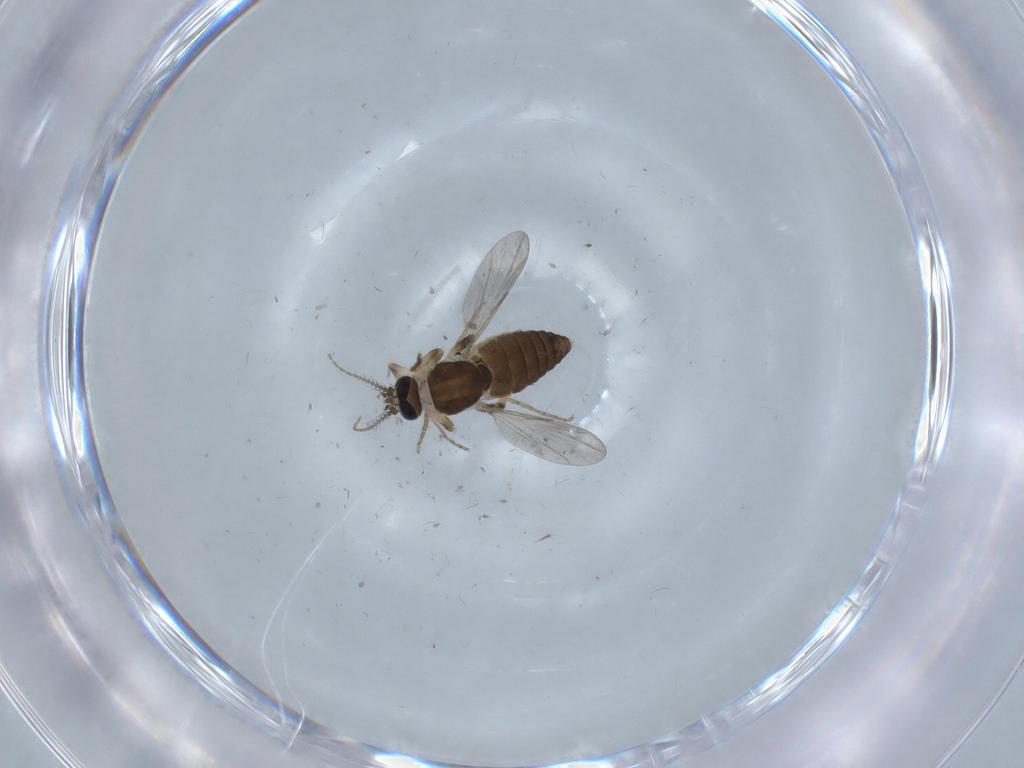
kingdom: Animalia
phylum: Arthropoda
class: Insecta
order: Diptera
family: Ceratopogonidae
